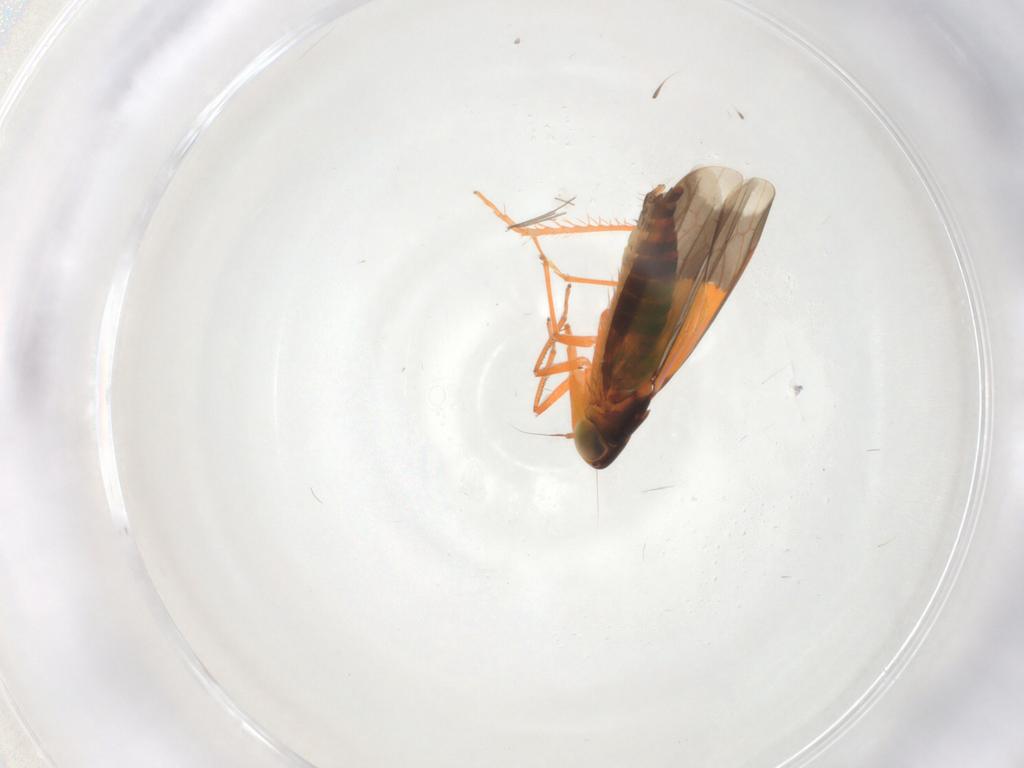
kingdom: Animalia
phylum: Arthropoda
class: Insecta
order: Hemiptera
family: Cicadellidae
